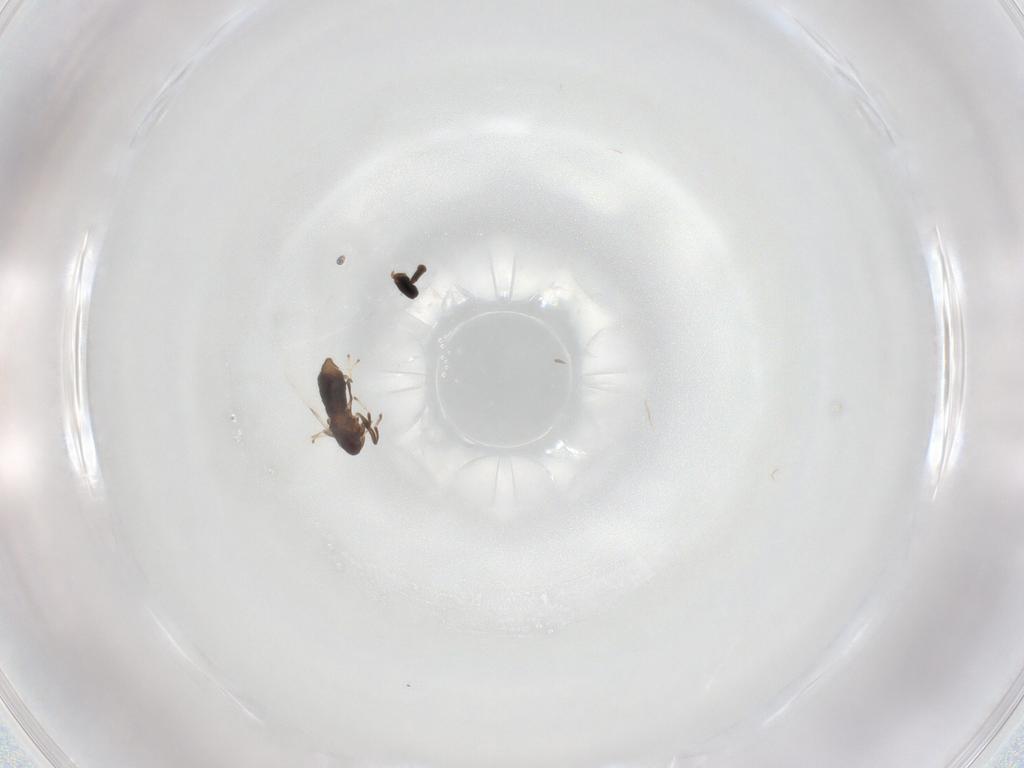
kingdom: Animalia
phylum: Arthropoda
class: Insecta
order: Diptera
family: Scatopsidae
